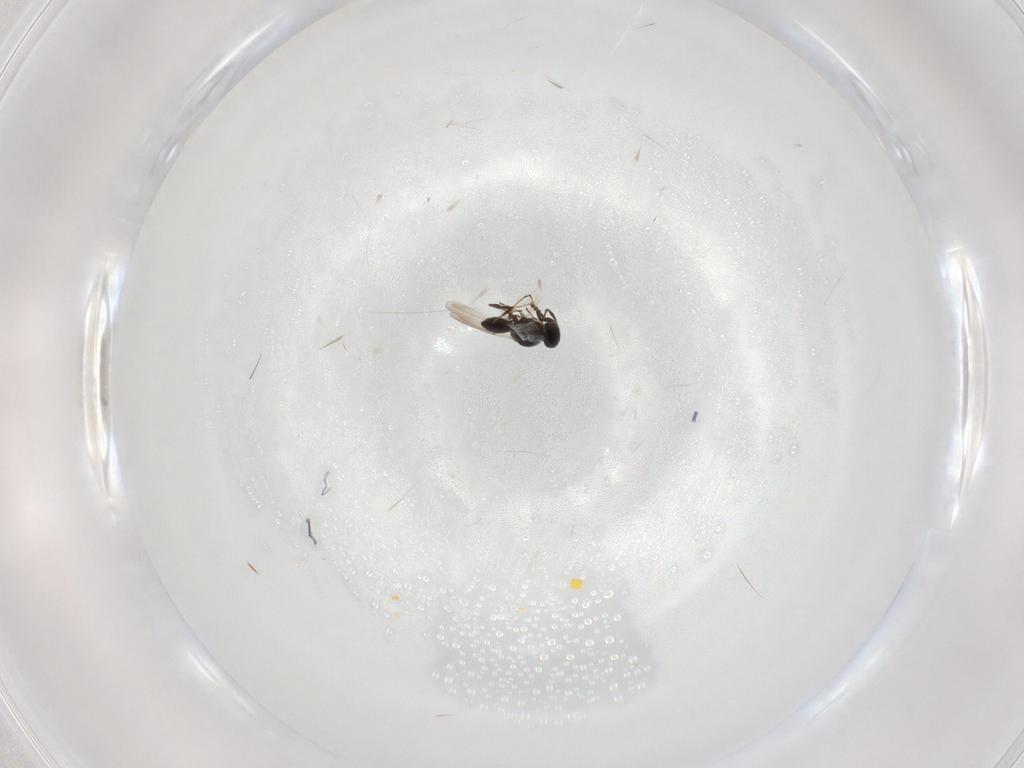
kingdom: Animalia
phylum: Arthropoda
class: Insecta
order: Hymenoptera
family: Platygastridae
